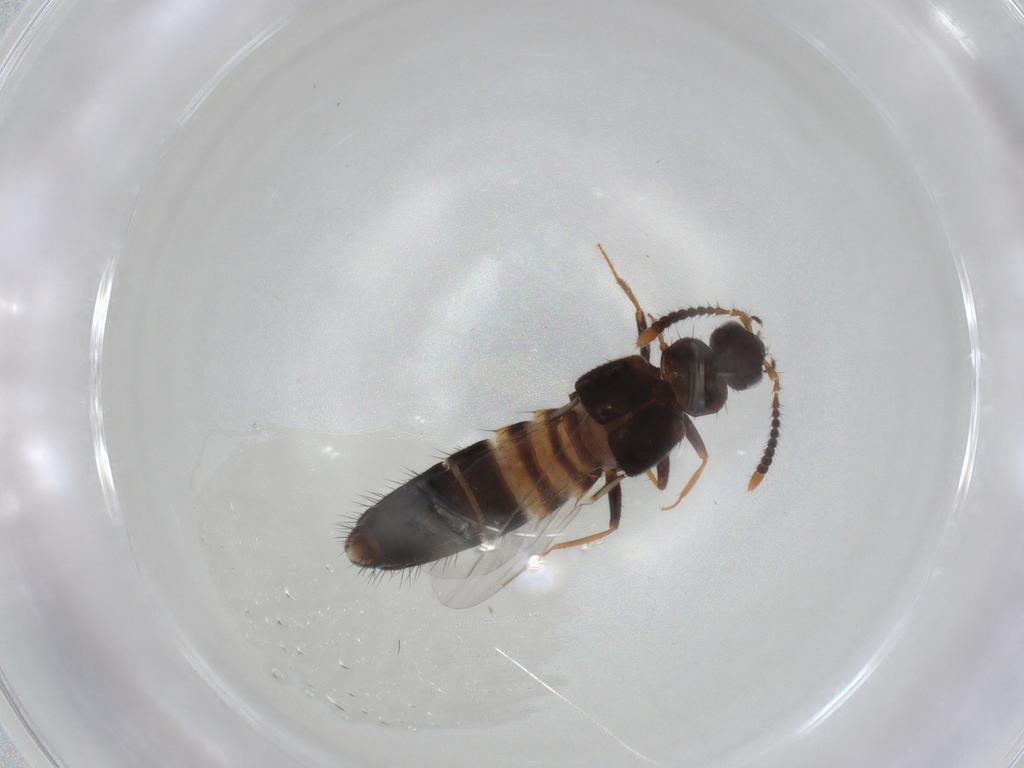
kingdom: Animalia
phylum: Arthropoda
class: Insecta
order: Coleoptera
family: Staphylinidae
